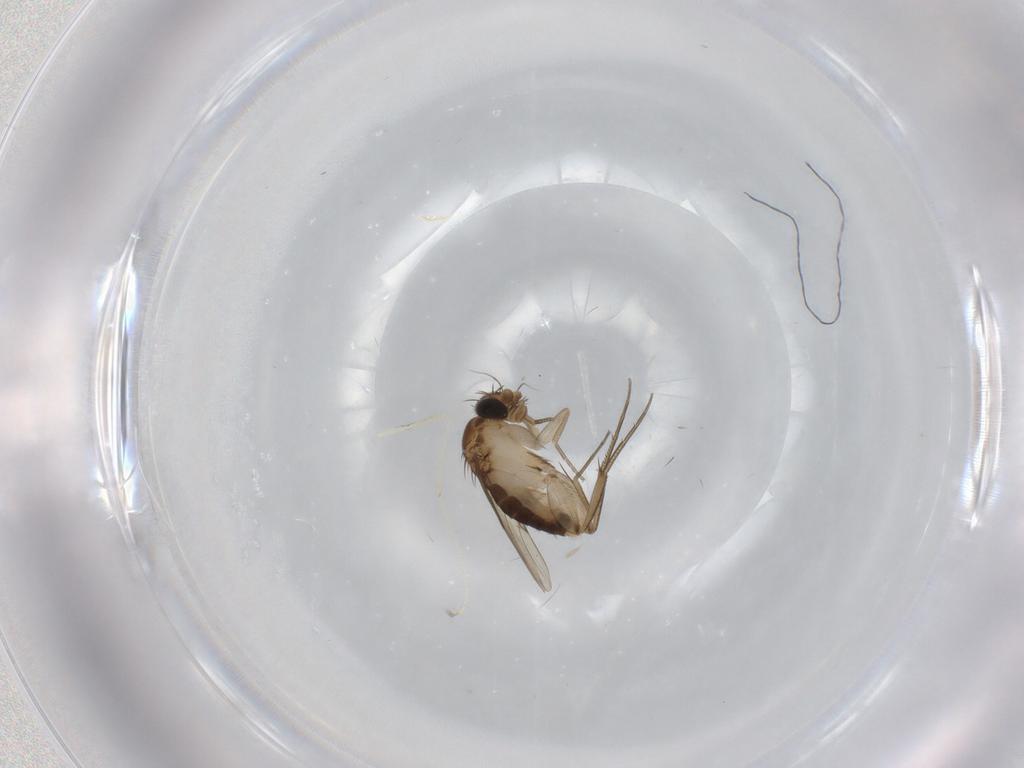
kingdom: Animalia
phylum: Arthropoda
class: Insecta
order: Diptera
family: Phoridae
